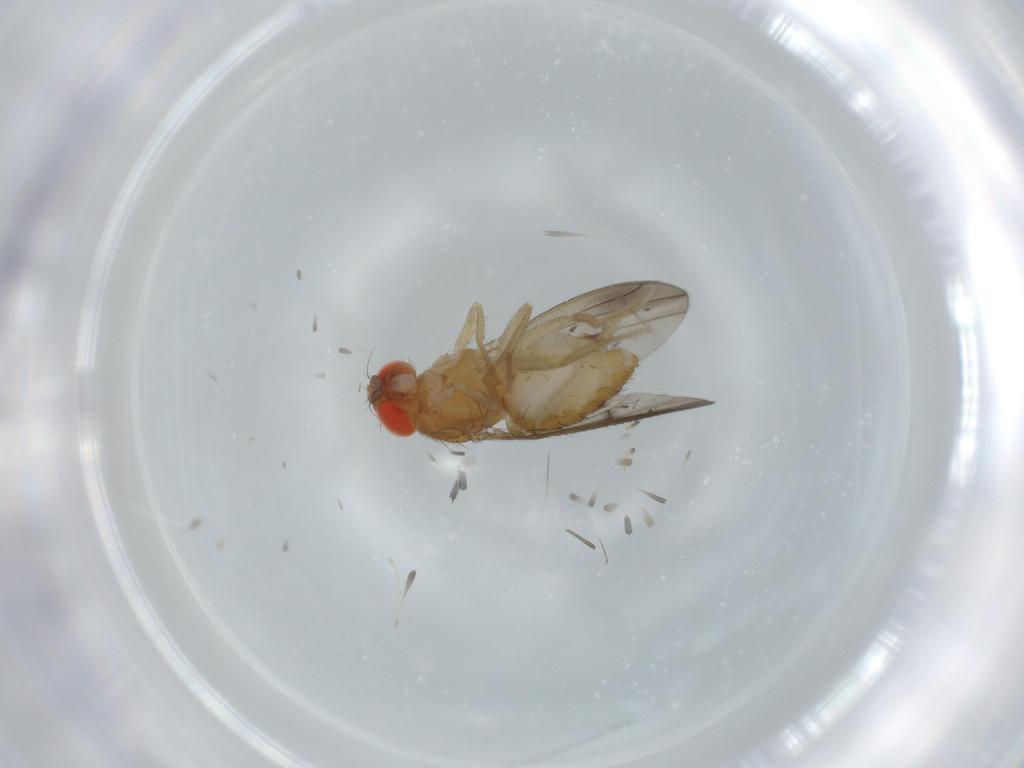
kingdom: Animalia
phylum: Arthropoda
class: Insecta
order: Diptera
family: Drosophilidae
